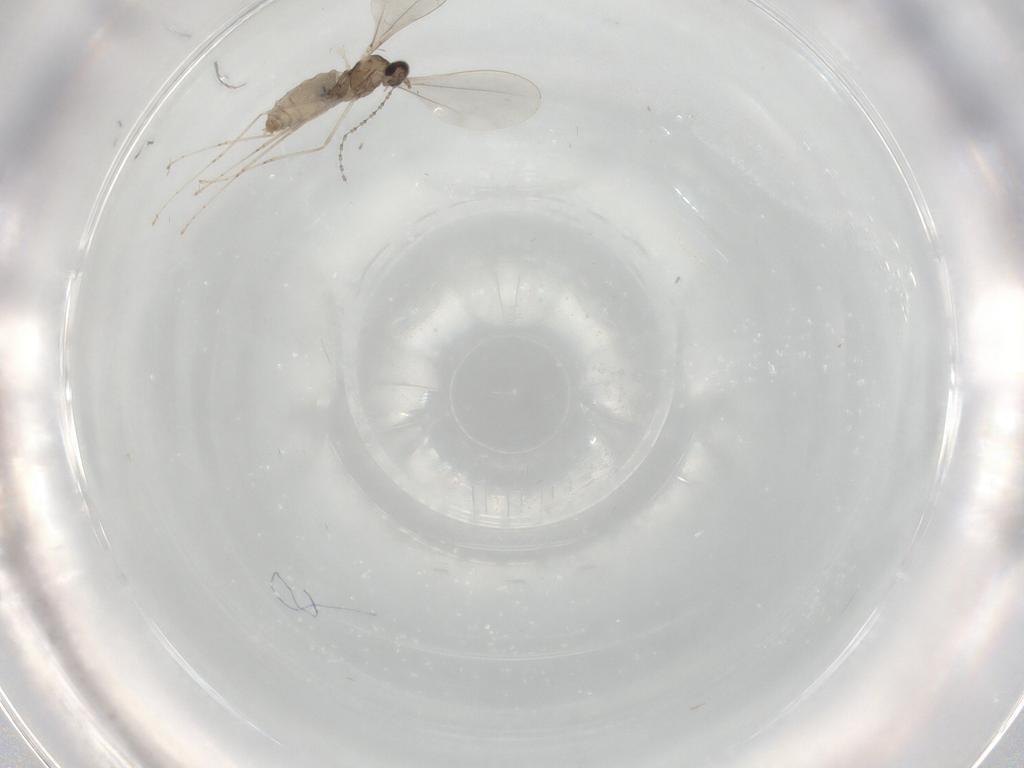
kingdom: Animalia
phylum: Arthropoda
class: Insecta
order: Diptera
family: Cecidomyiidae
